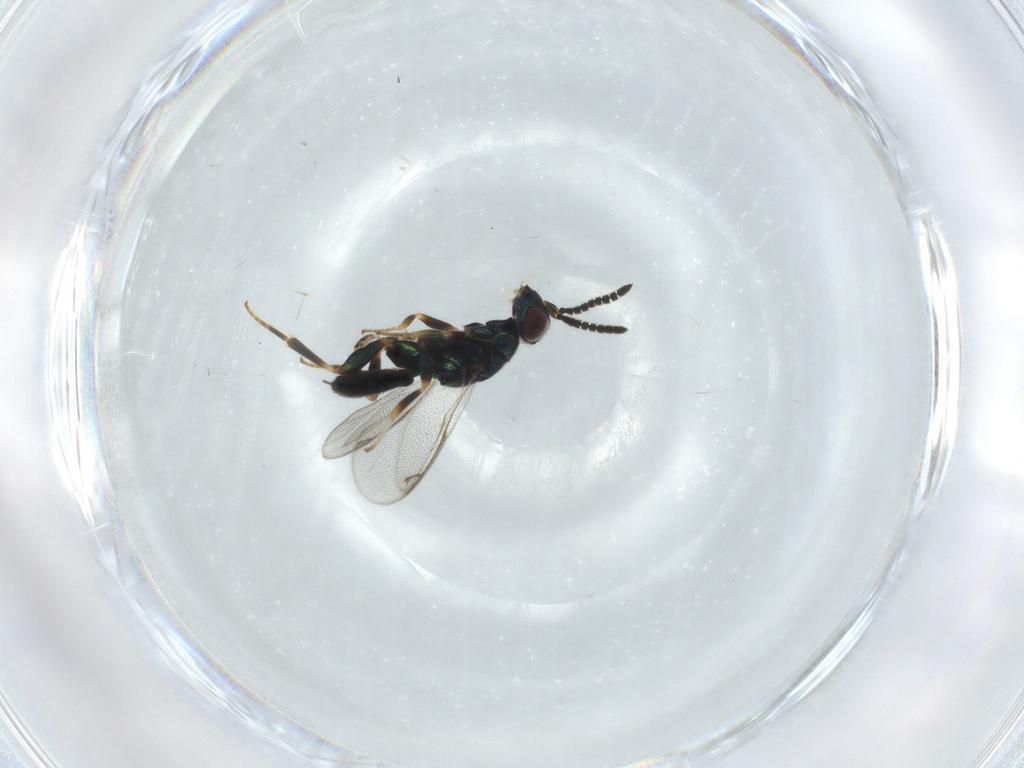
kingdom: Animalia
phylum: Arthropoda
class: Insecta
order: Hymenoptera
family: Cleonyminae
